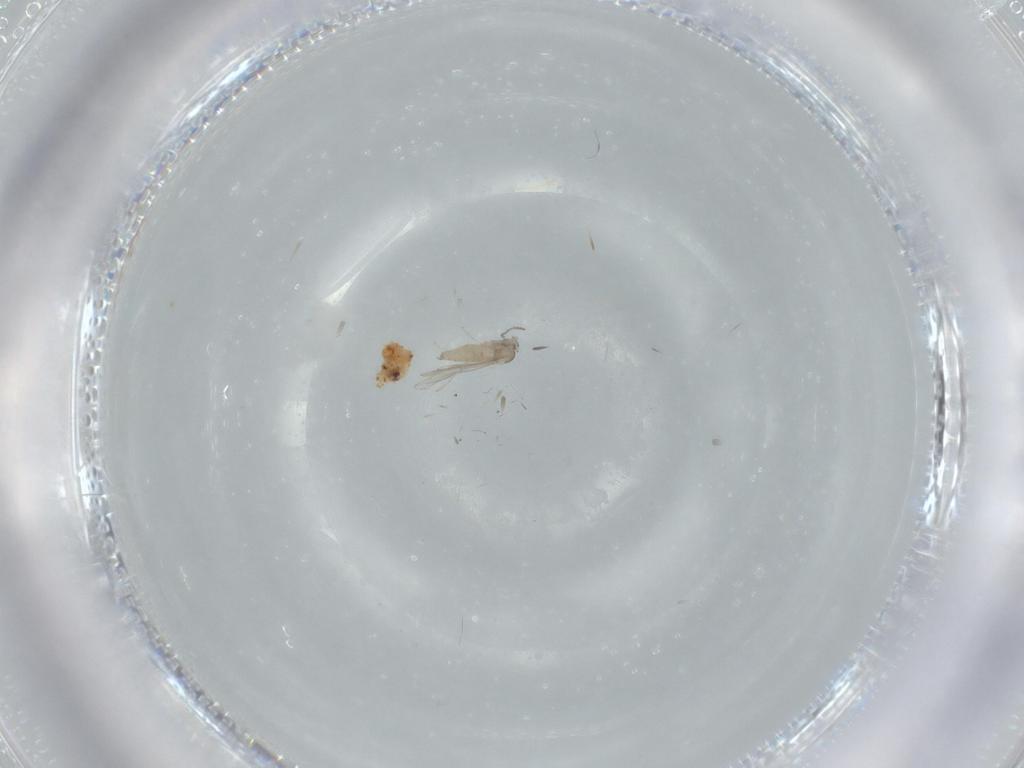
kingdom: Animalia
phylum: Arthropoda
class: Insecta
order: Diptera
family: Cecidomyiidae
